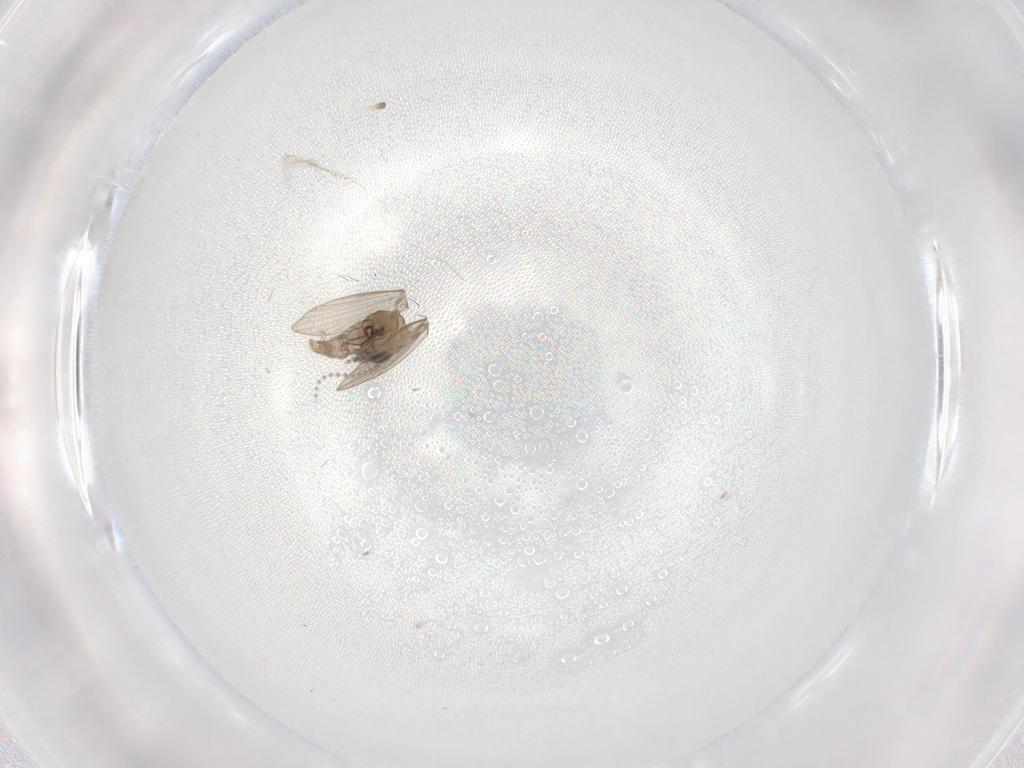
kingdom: Animalia
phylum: Arthropoda
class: Insecta
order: Diptera
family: Psychodidae
